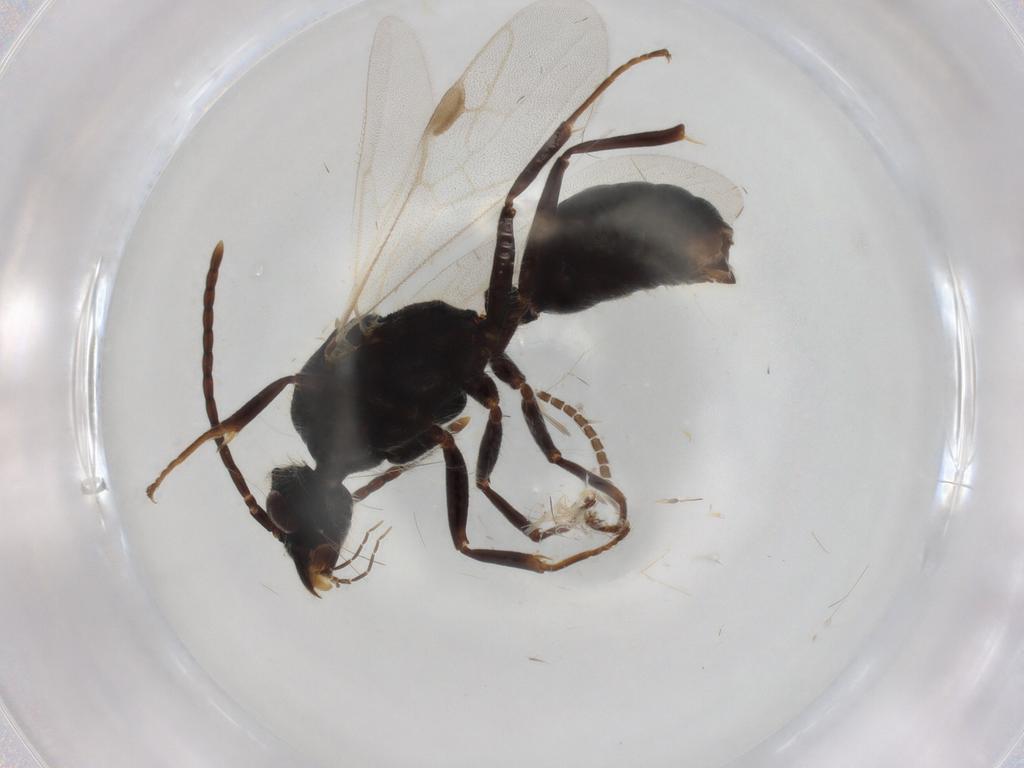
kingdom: Animalia
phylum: Arthropoda
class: Insecta
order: Hymenoptera
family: Formicidae
